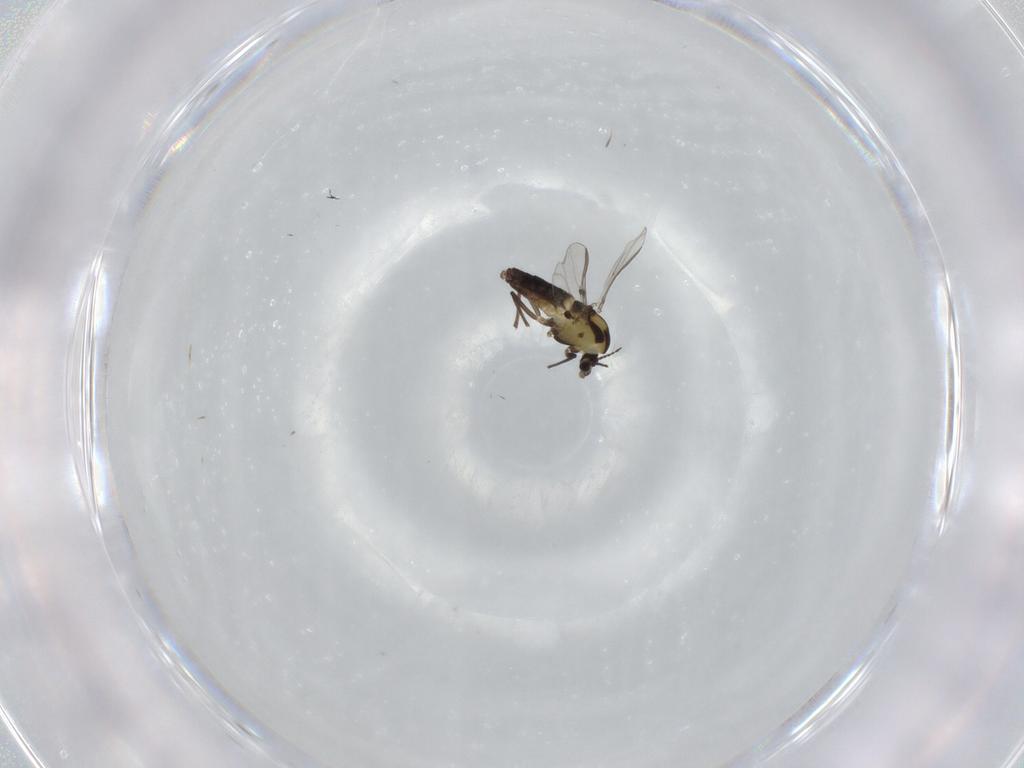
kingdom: Animalia
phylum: Arthropoda
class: Insecta
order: Diptera
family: Chironomidae
